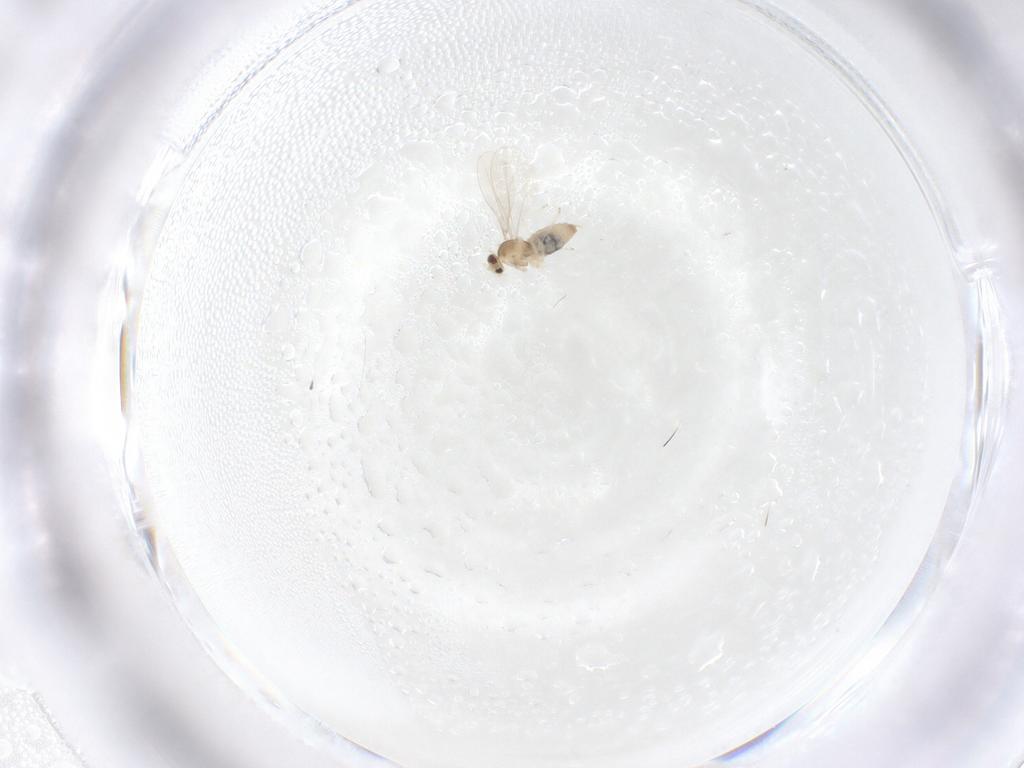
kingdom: Animalia
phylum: Arthropoda
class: Insecta
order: Diptera
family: Cecidomyiidae
